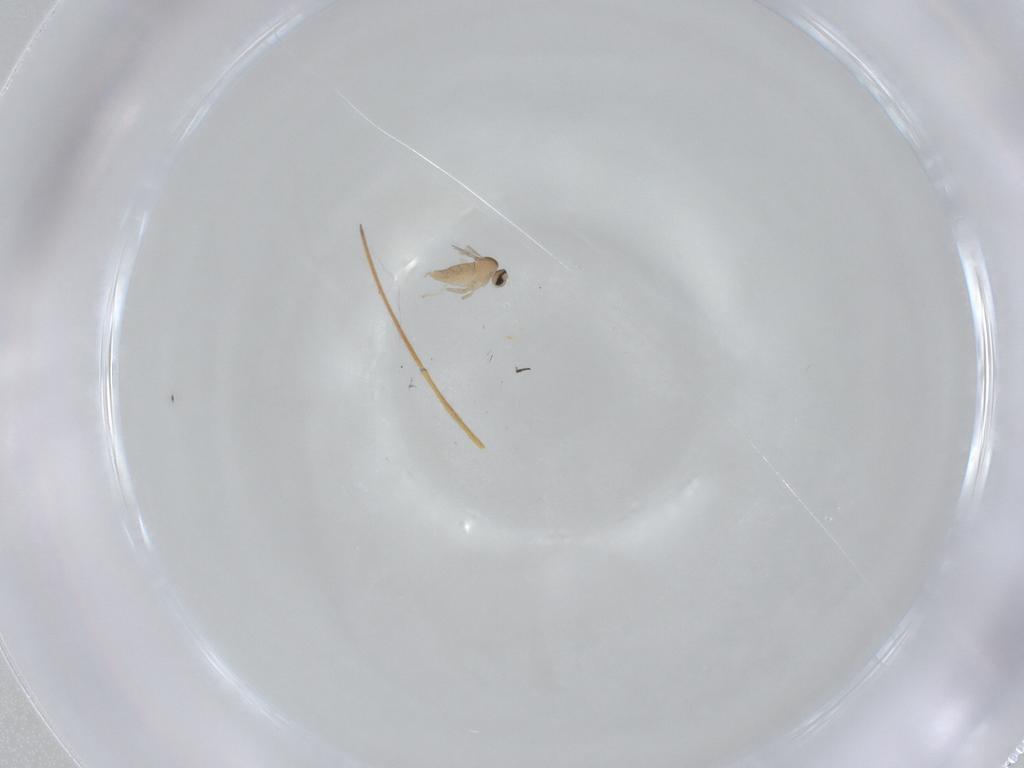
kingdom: Animalia
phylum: Arthropoda
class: Insecta
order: Diptera
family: Cecidomyiidae
